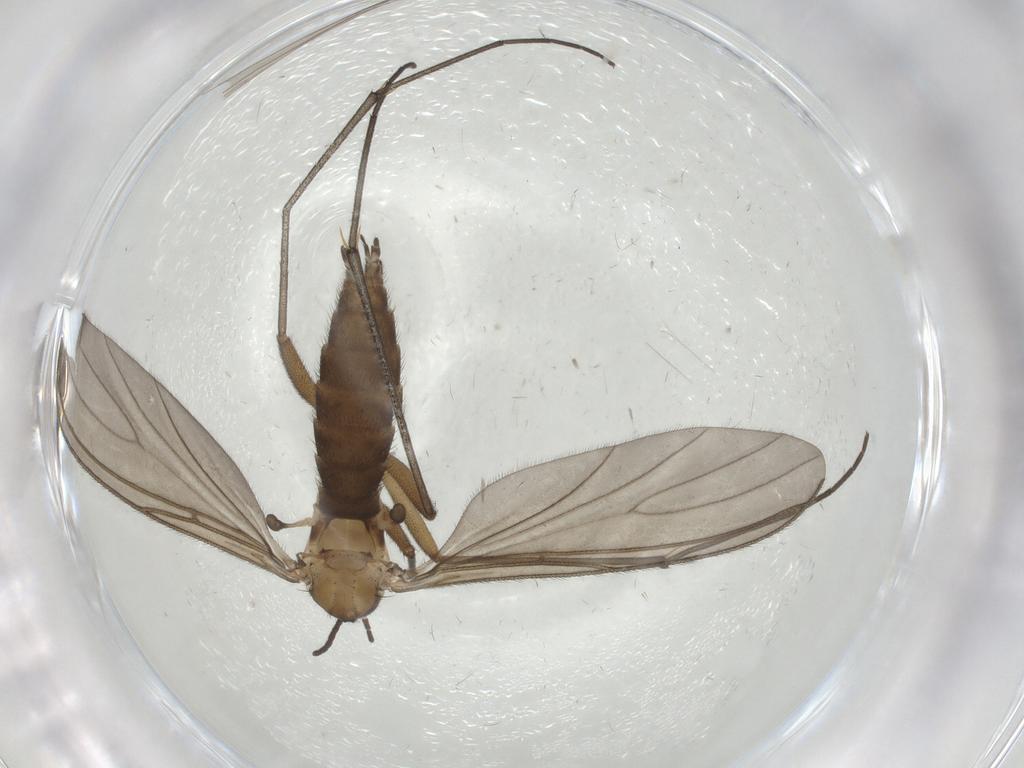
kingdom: Animalia
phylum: Arthropoda
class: Insecta
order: Diptera
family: Sciaridae
